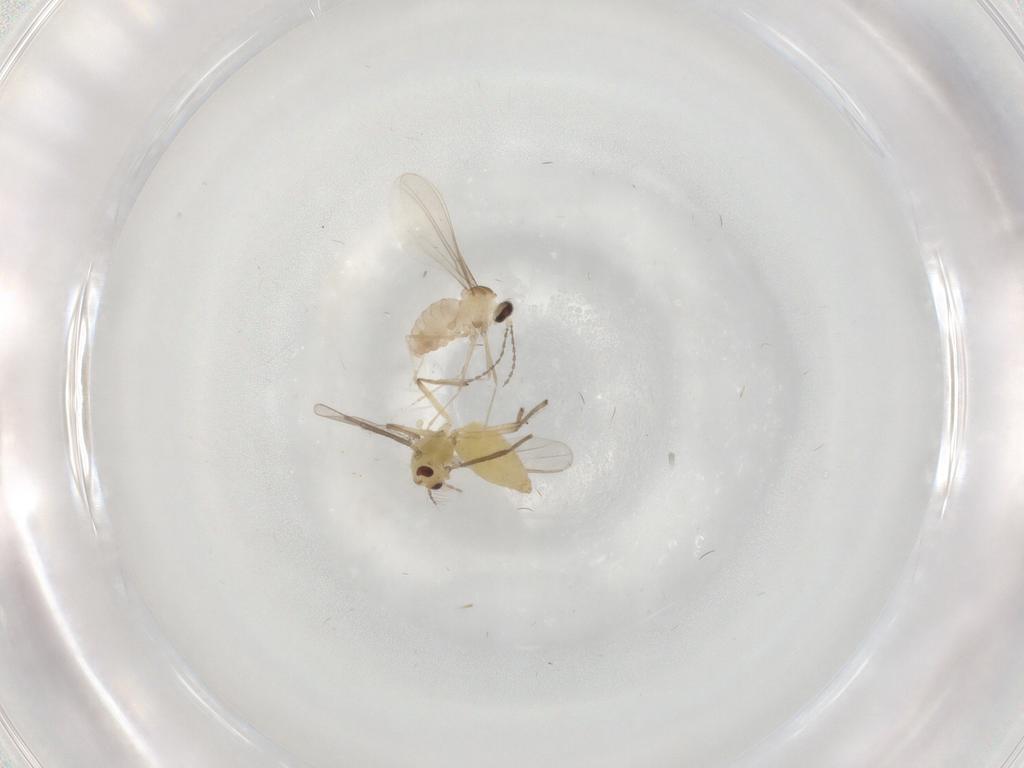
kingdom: Animalia
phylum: Arthropoda
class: Insecta
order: Diptera
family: Chironomidae
